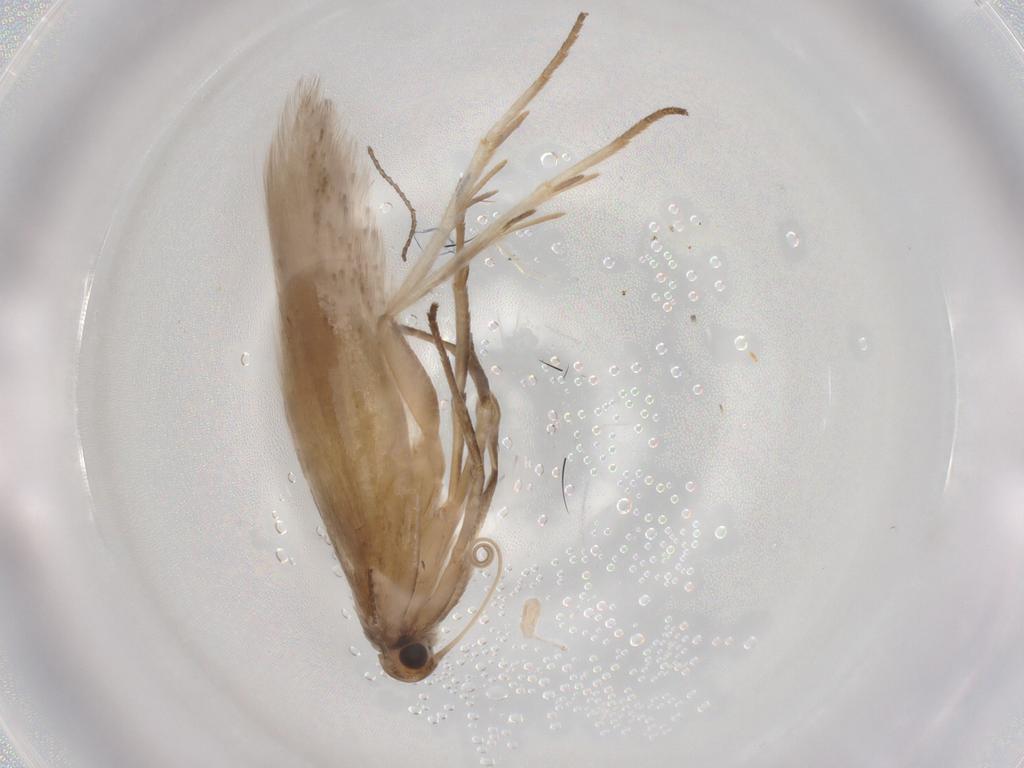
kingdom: Animalia
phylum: Arthropoda
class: Insecta
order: Lepidoptera
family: Gelechiidae
